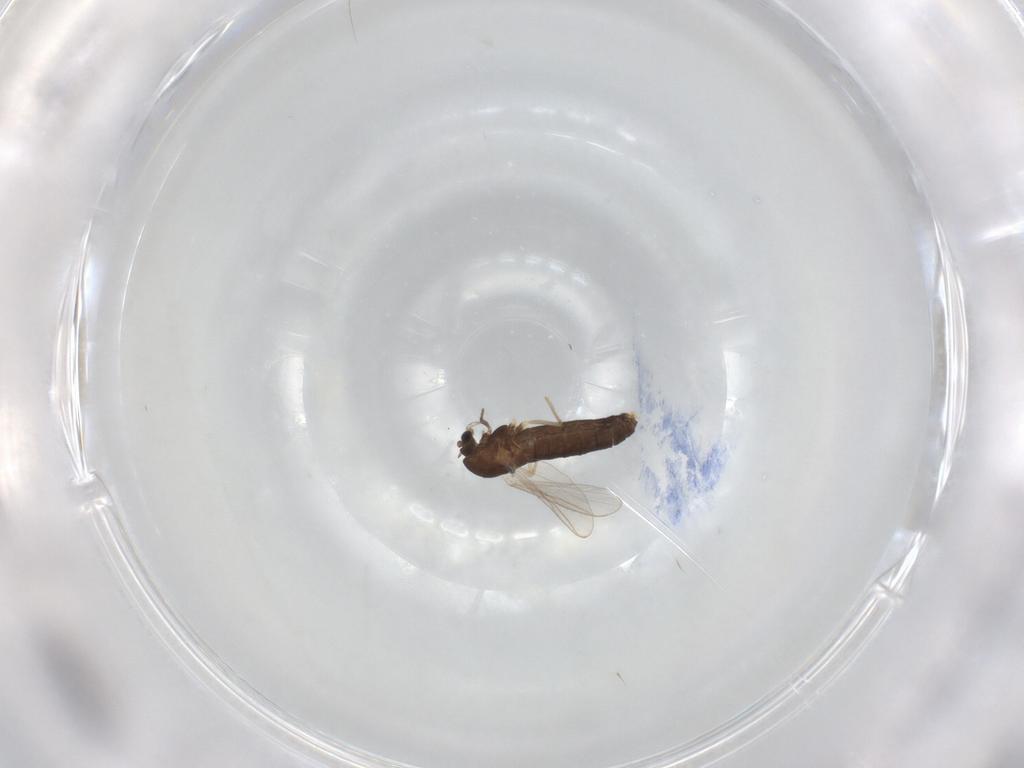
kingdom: Animalia
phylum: Arthropoda
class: Insecta
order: Diptera
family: Chironomidae
